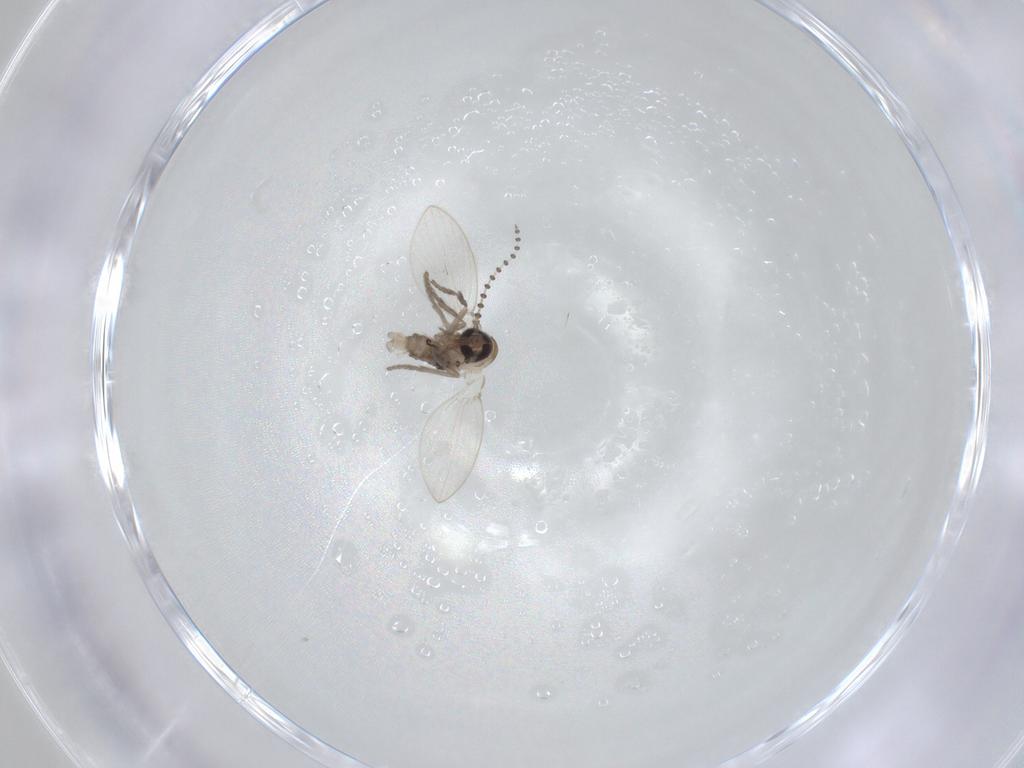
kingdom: Animalia
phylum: Arthropoda
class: Insecta
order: Diptera
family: Psychodidae
